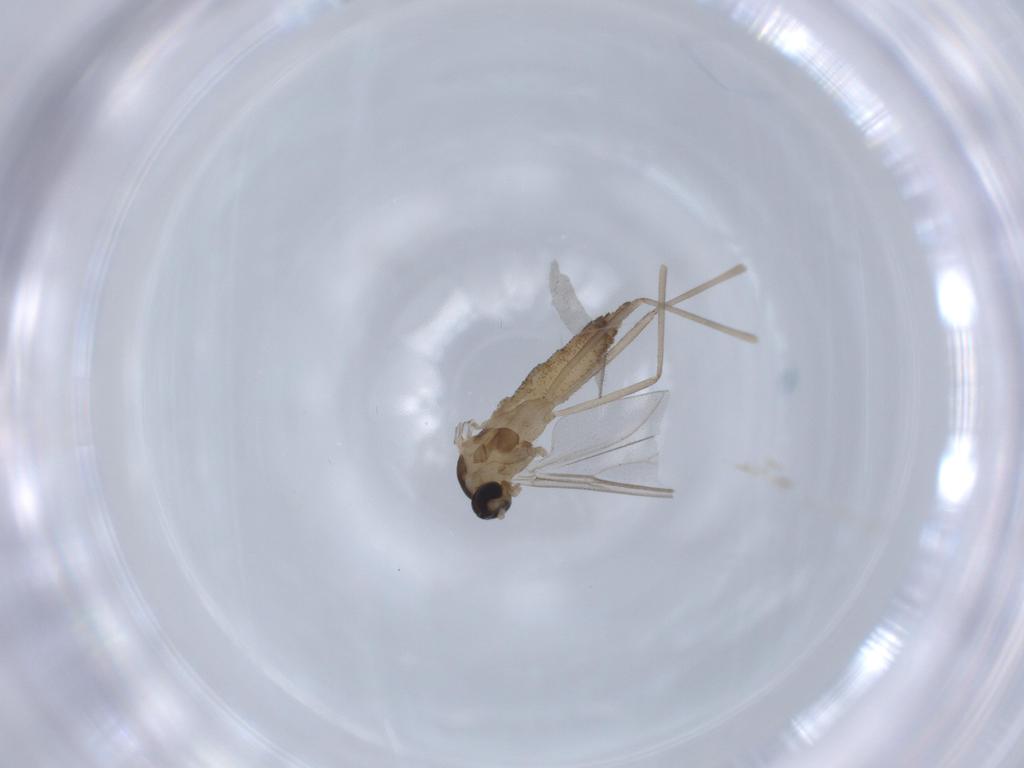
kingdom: Animalia
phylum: Arthropoda
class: Insecta
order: Diptera
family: Cecidomyiidae
